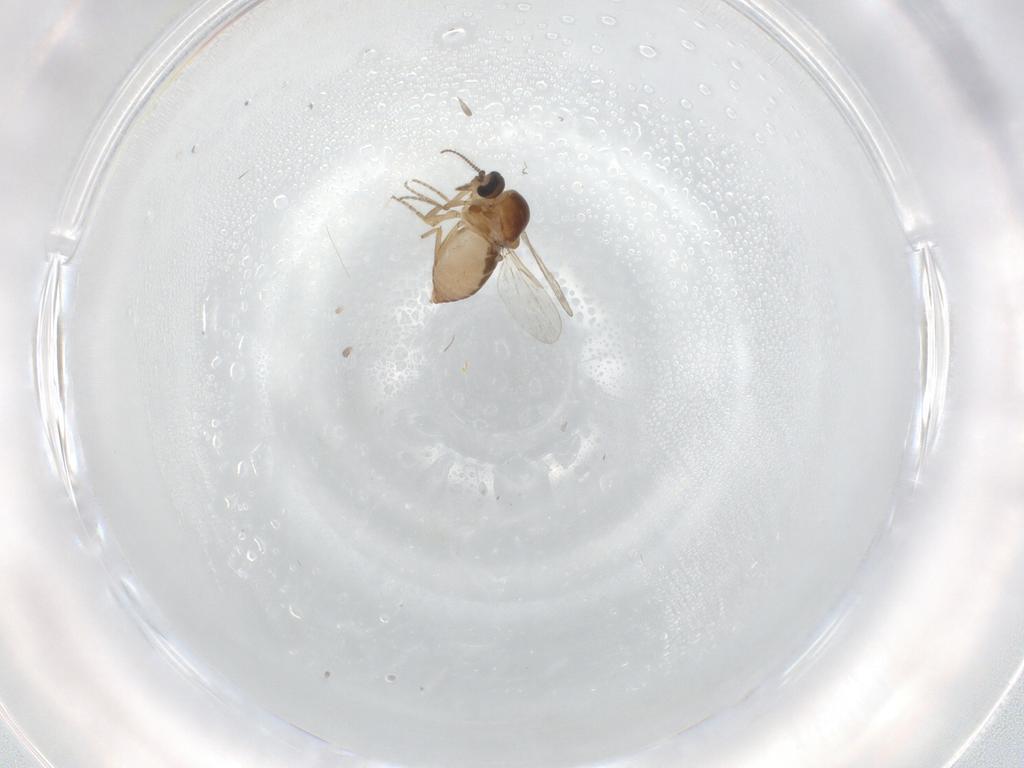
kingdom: Animalia
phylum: Arthropoda
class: Insecta
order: Diptera
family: Ceratopogonidae
